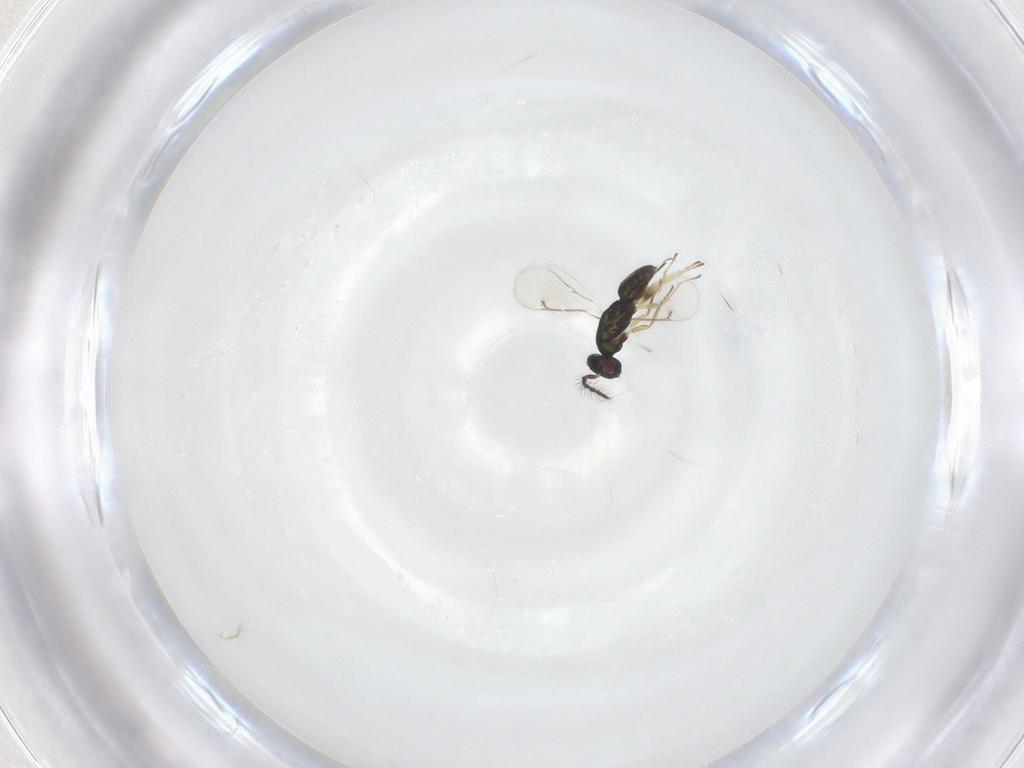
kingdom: Animalia
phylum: Arthropoda
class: Insecta
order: Hymenoptera
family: Eulophidae
